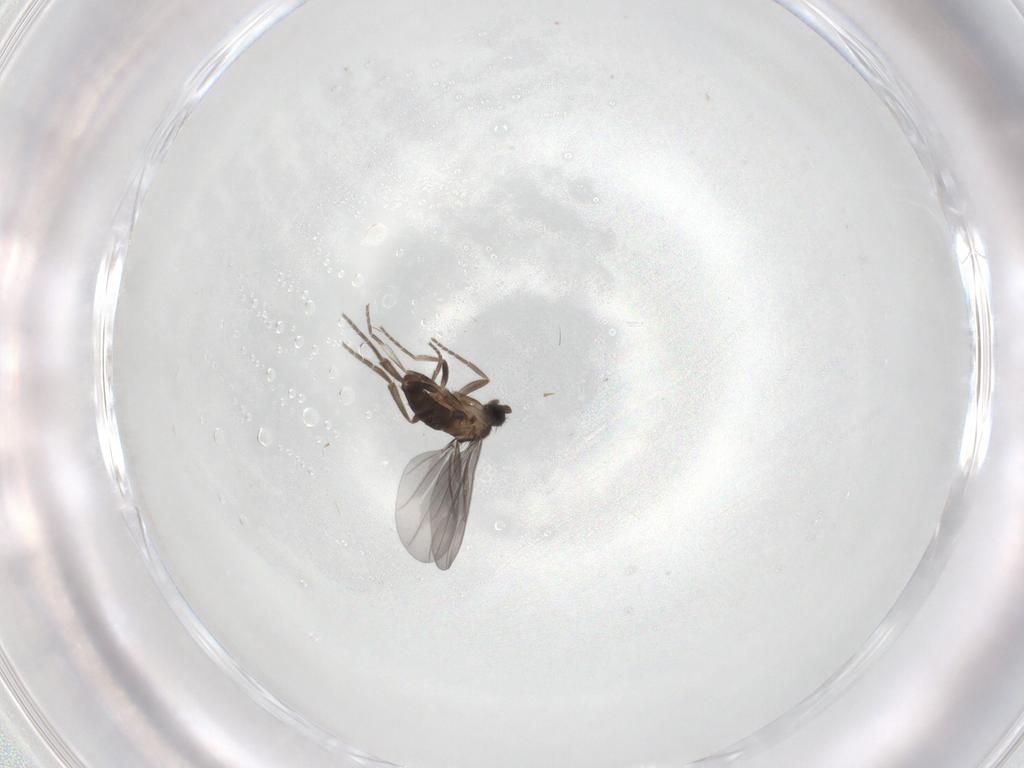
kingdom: Animalia
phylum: Arthropoda
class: Insecta
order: Diptera
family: Phoridae
